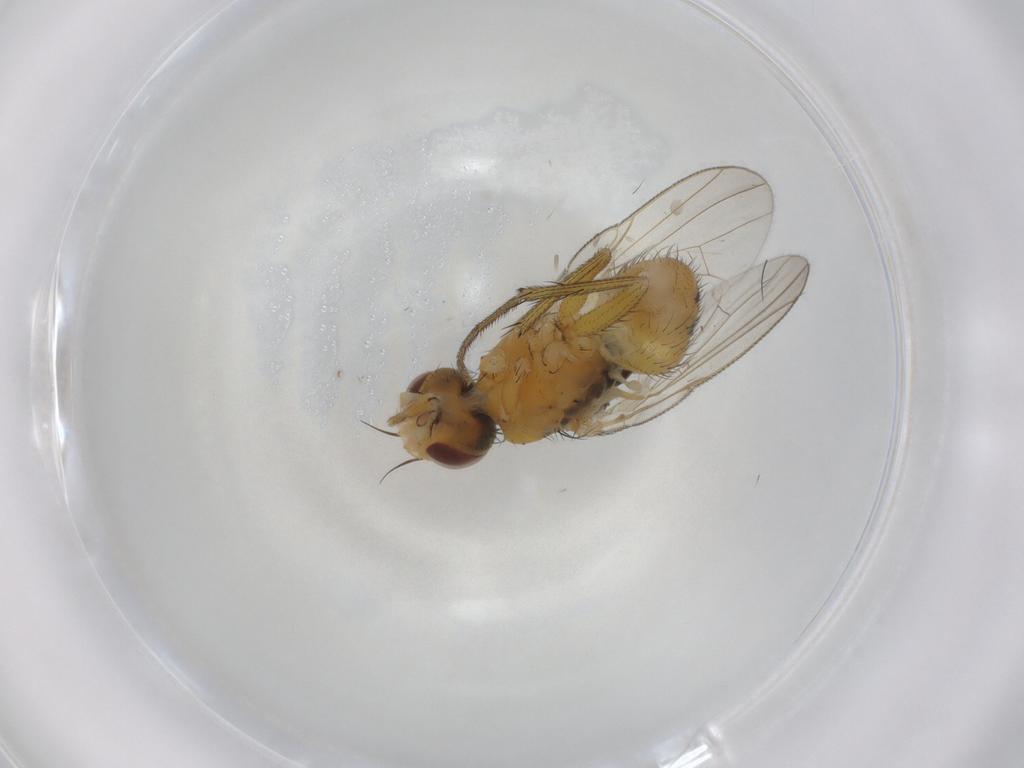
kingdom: Animalia
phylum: Arthropoda
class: Insecta
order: Diptera
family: Muscidae
